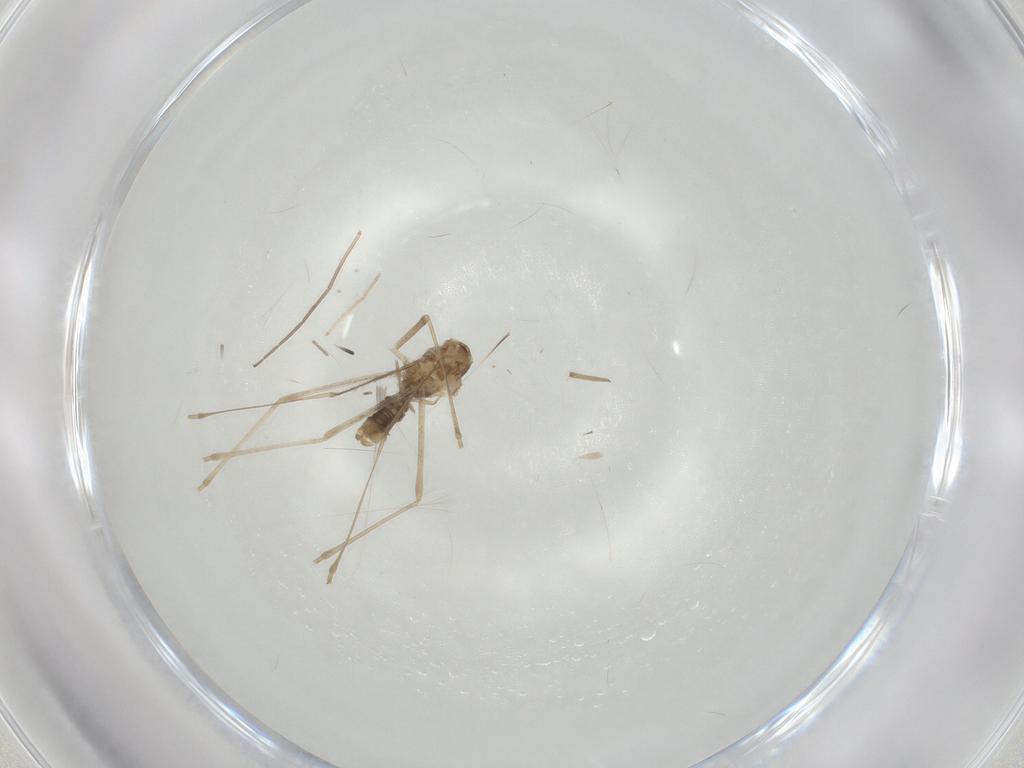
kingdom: Animalia
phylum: Arthropoda
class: Insecta
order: Diptera
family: Cecidomyiidae
